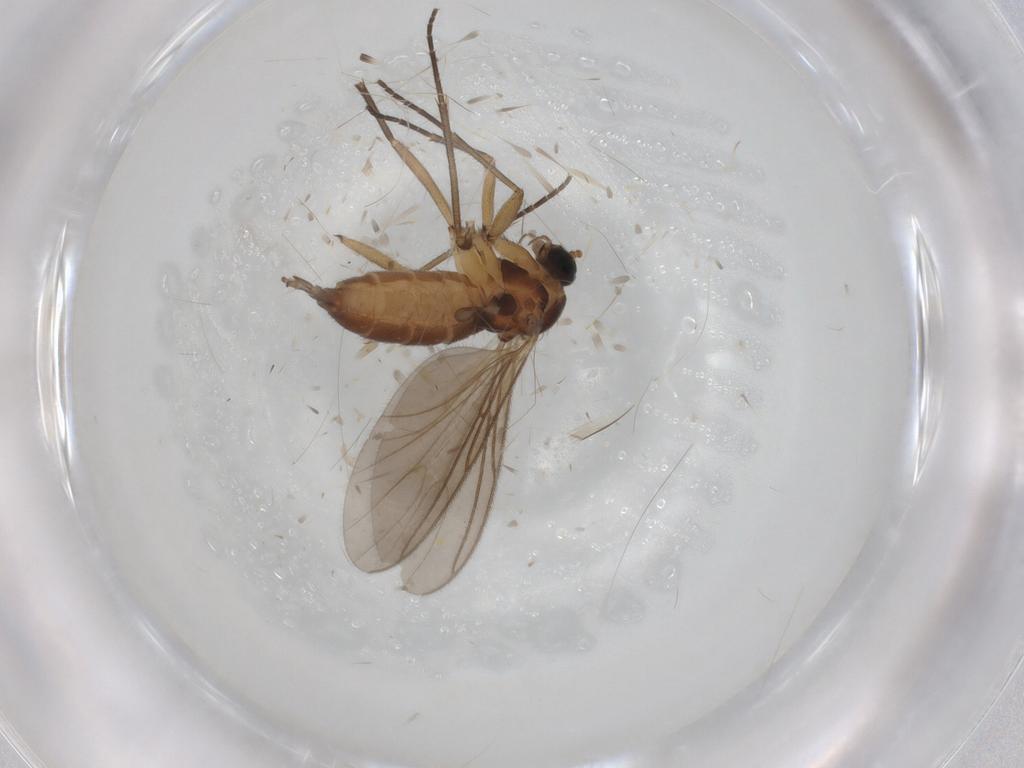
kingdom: Animalia
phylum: Arthropoda
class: Insecta
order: Diptera
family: Sciaridae
